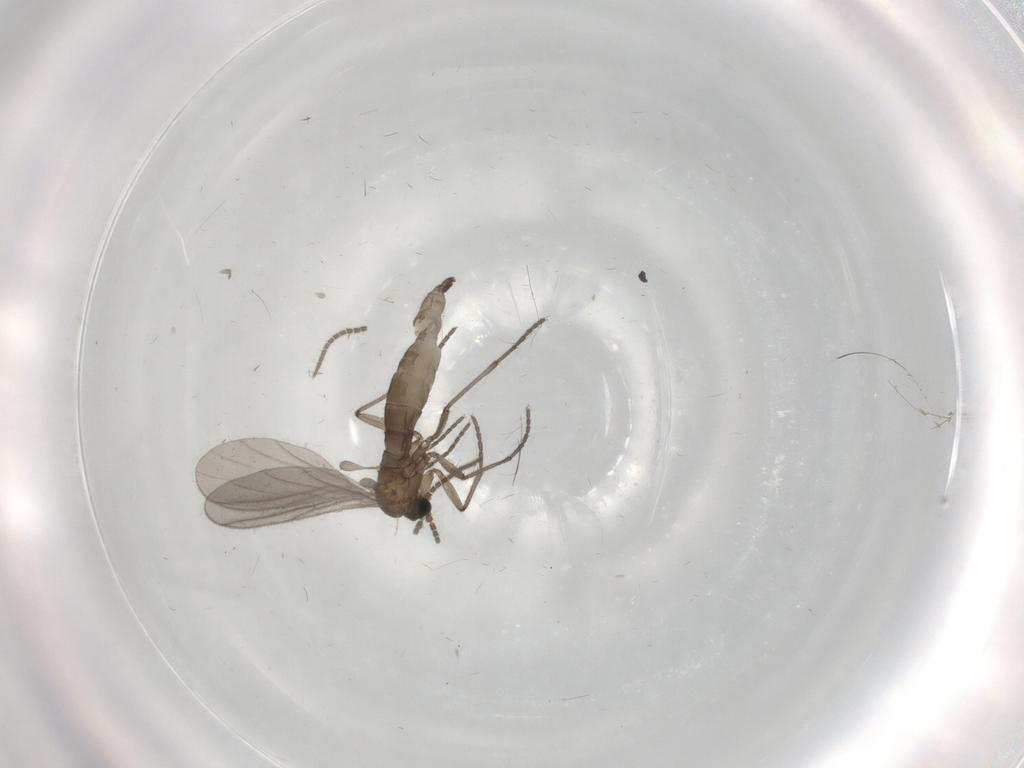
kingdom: Animalia
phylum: Arthropoda
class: Insecta
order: Diptera
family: Sciaridae
